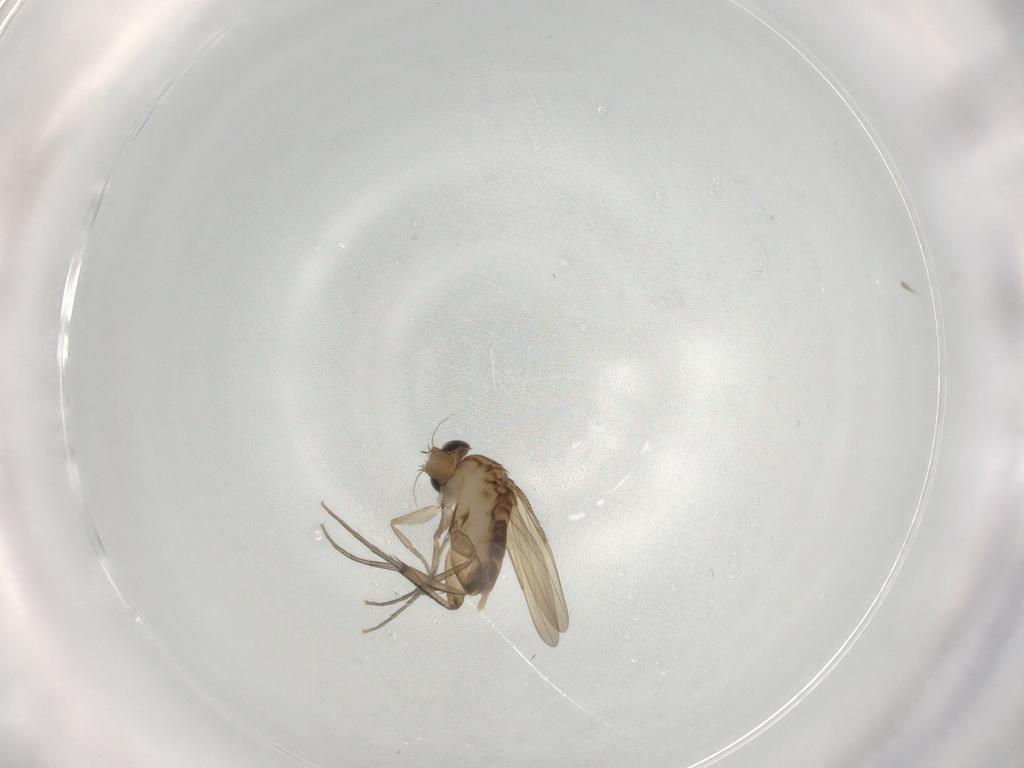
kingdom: Animalia
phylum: Arthropoda
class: Insecta
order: Diptera
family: Phoridae
